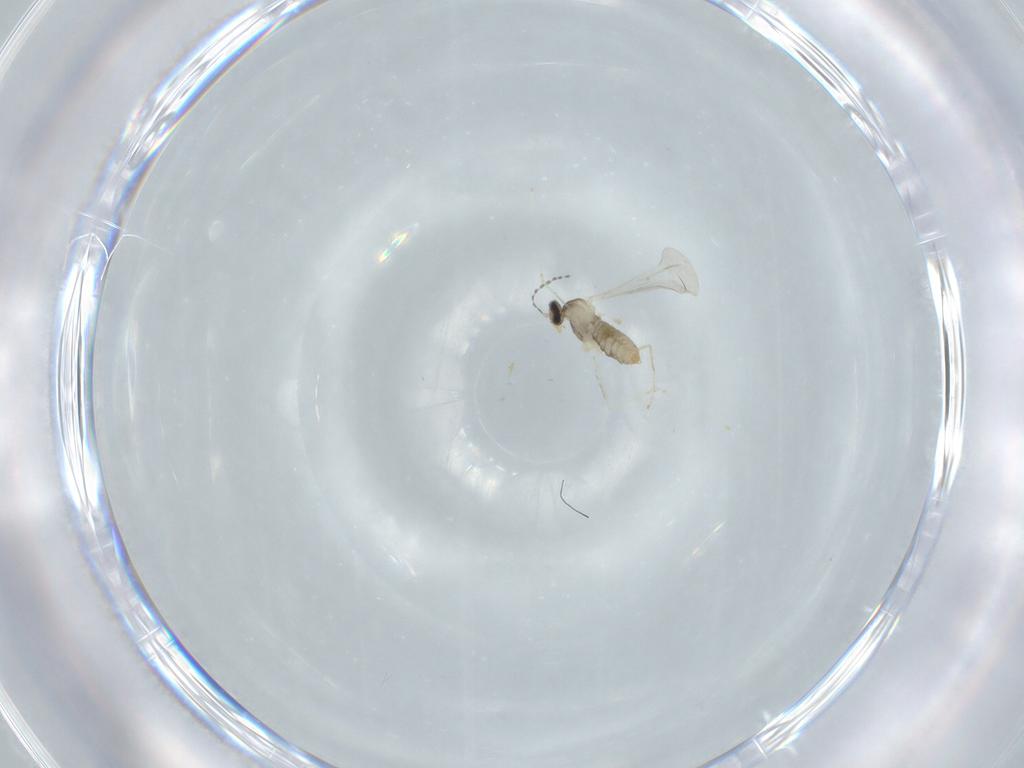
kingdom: Animalia
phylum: Arthropoda
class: Insecta
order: Diptera
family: Cecidomyiidae
